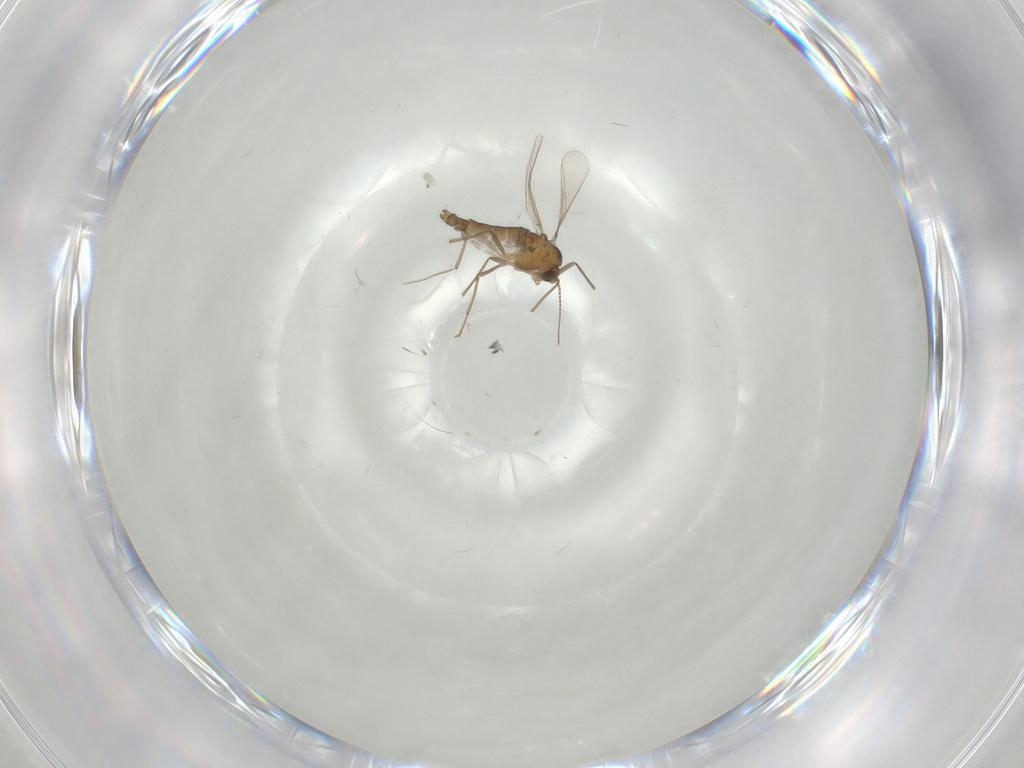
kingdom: Animalia
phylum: Arthropoda
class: Insecta
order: Diptera
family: Chironomidae
